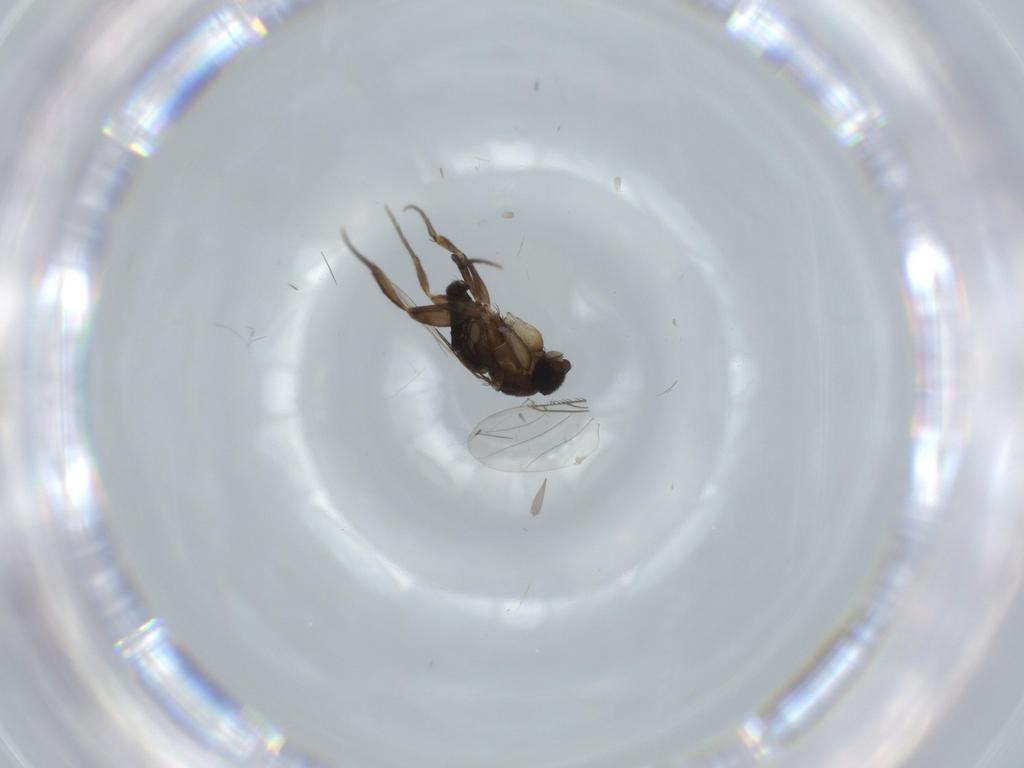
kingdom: Animalia
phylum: Arthropoda
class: Insecta
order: Diptera
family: Phoridae
